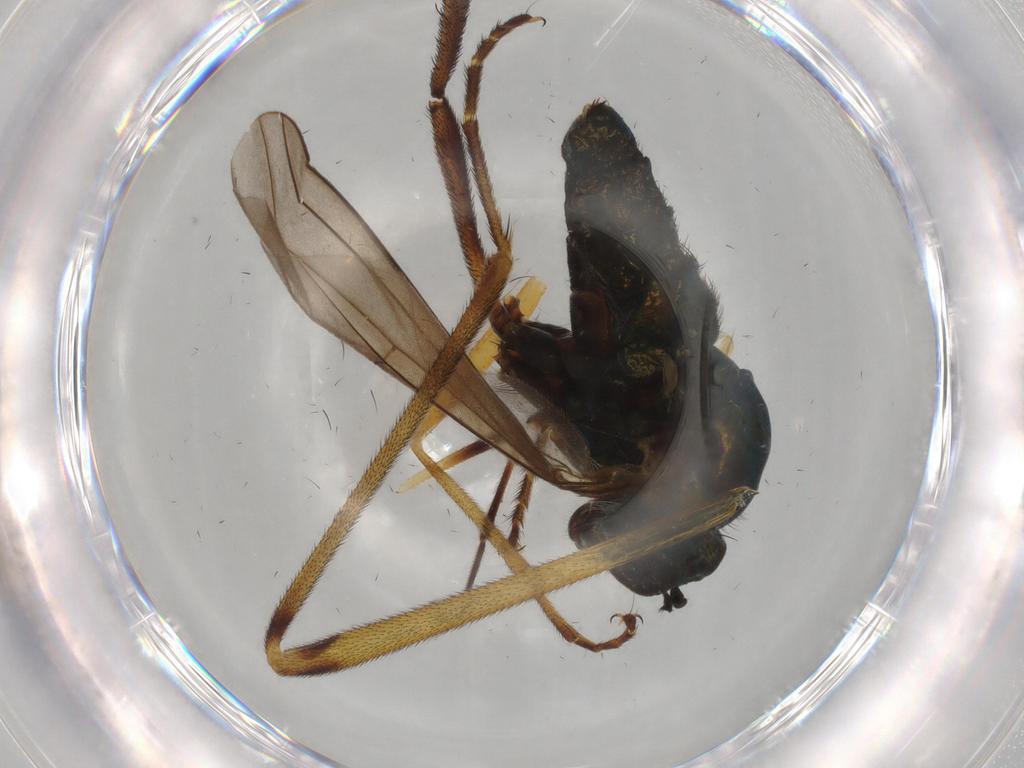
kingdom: Animalia
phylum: Arthropoda
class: Insecta
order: Diptera
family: Dolichopodidae
